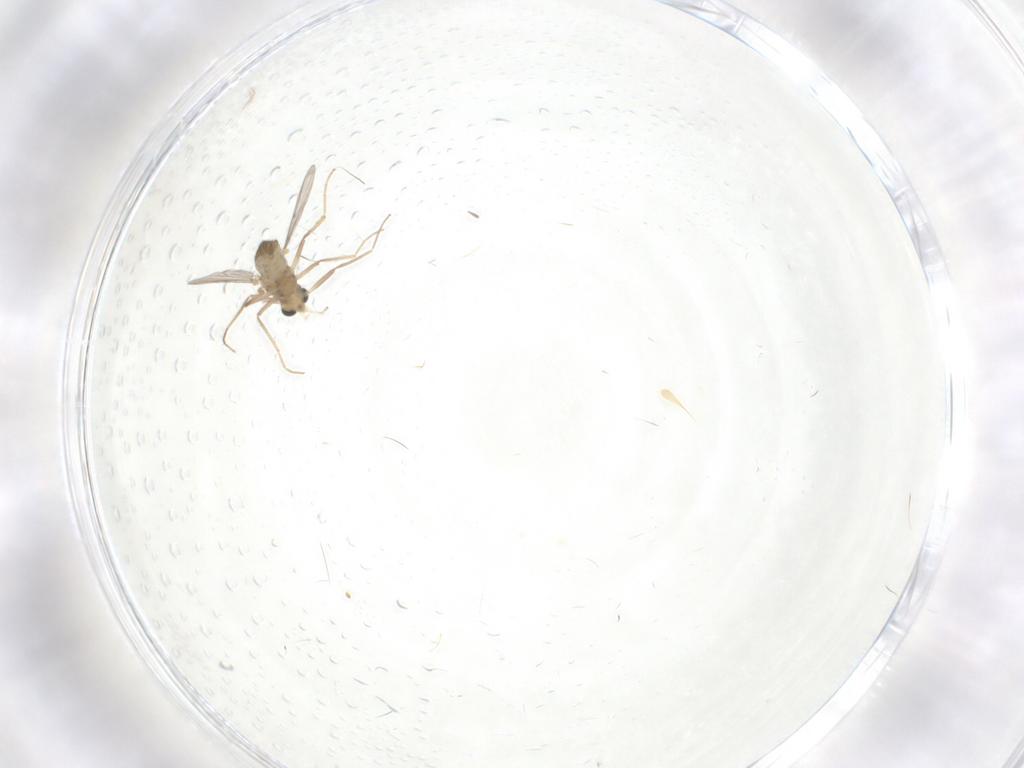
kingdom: Animalia
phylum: Arthropoda
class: Insecta
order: Diptera
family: Chironomidae
